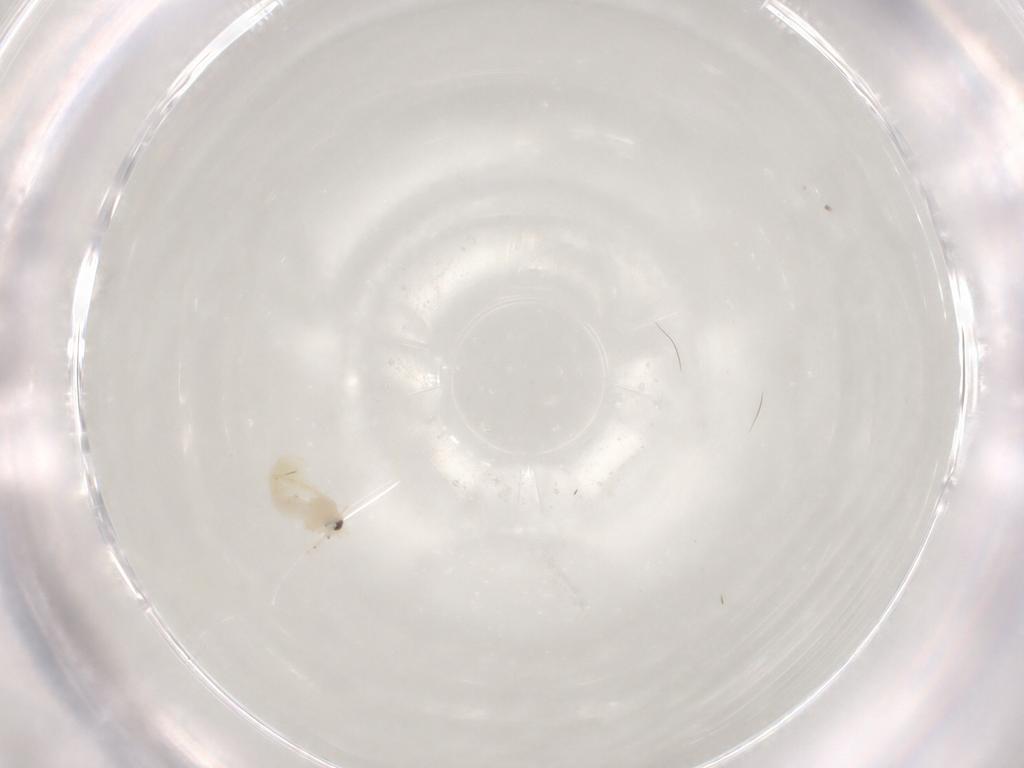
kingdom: Animalia
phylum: Arthropoda
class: Insecta
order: Hemiptera
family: Aleyrodidae
